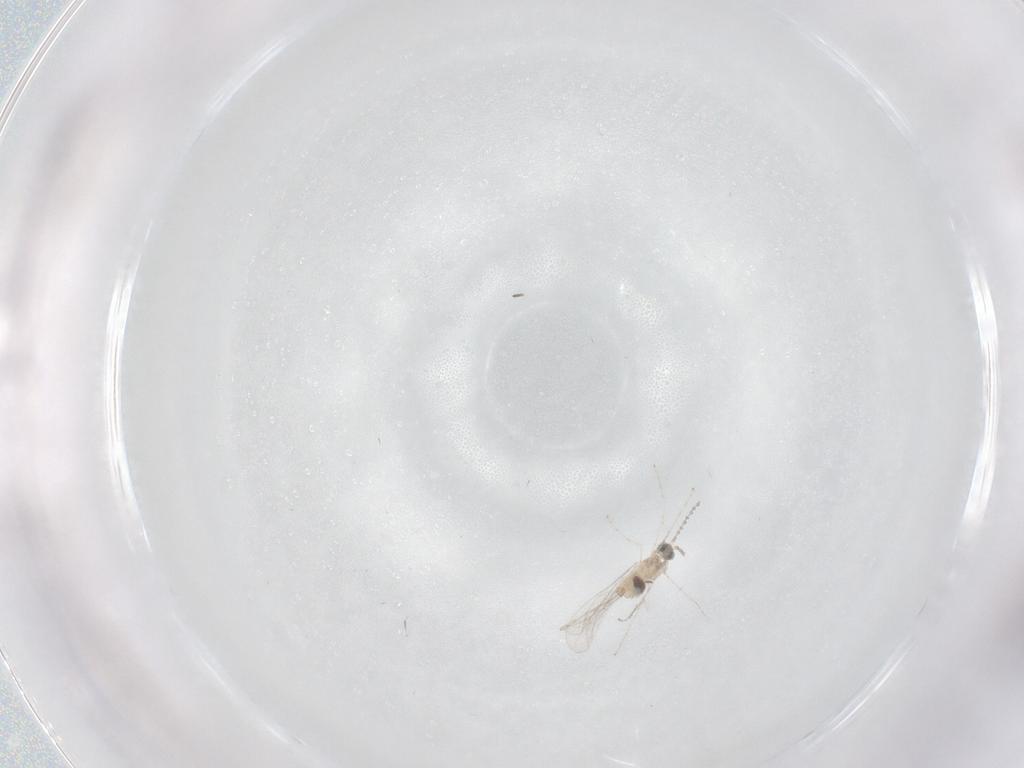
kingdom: Animalia
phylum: Arthropoda
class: Insecta
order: Diptera
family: Cecidomyiidae
